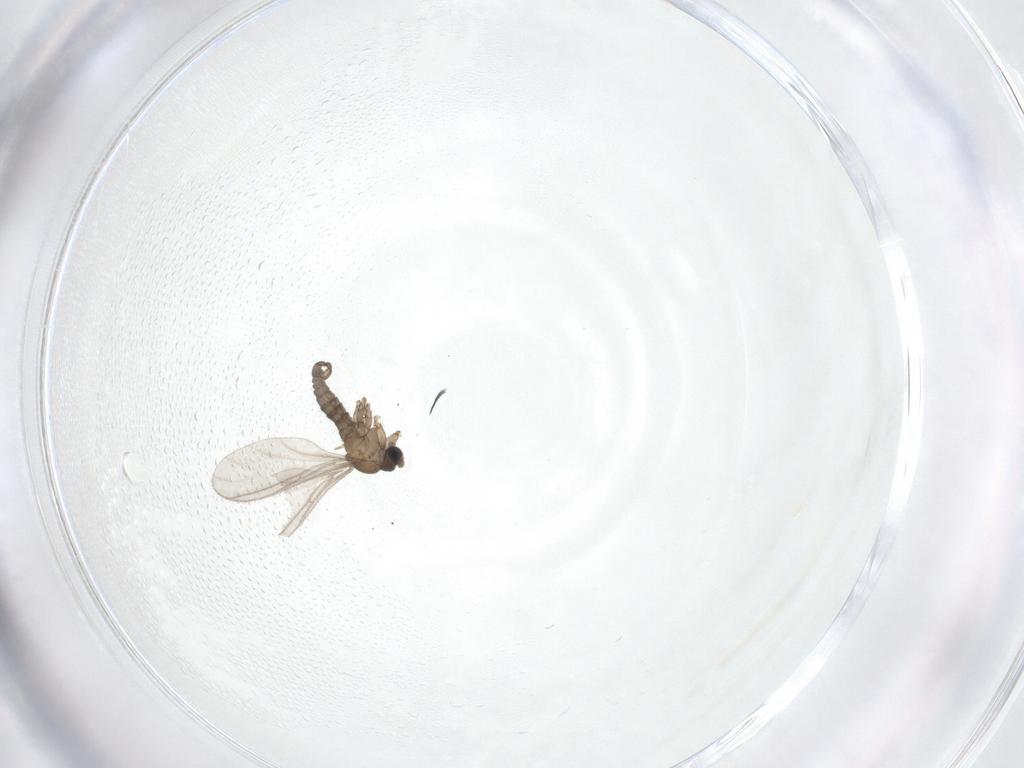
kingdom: Animalia
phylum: Arthropoda
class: Insecta
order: Diptera
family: Sciaridae
